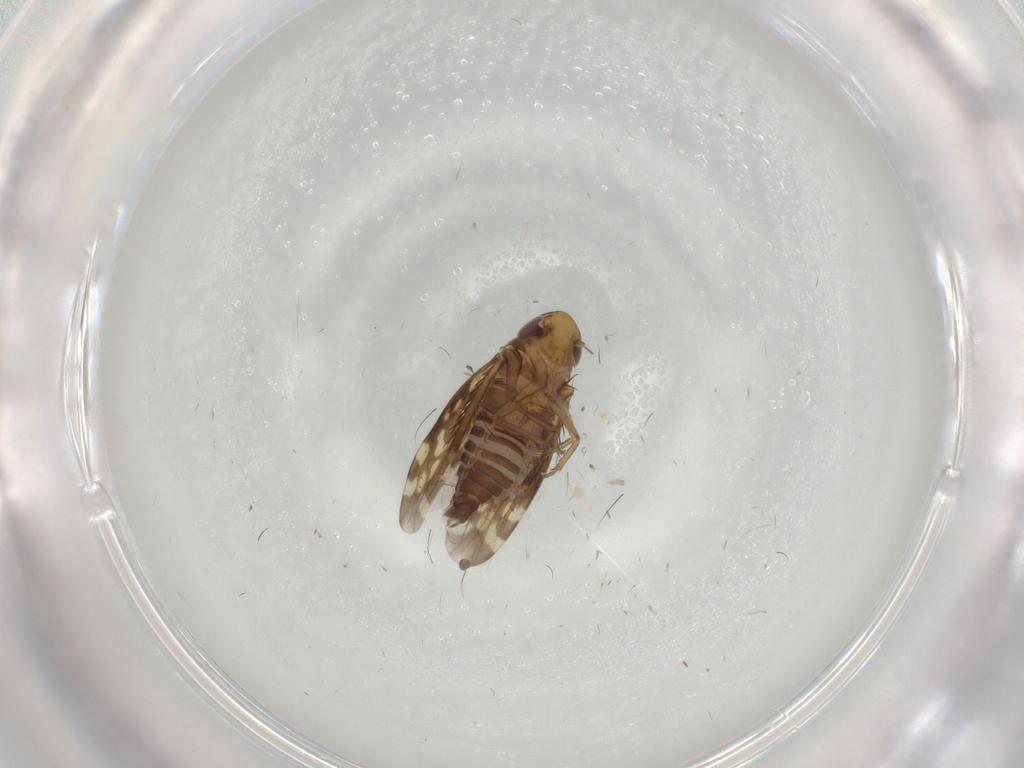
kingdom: Animalia
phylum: Arthropoda
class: Insecta
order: Hemiptera
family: Cicadellidae
